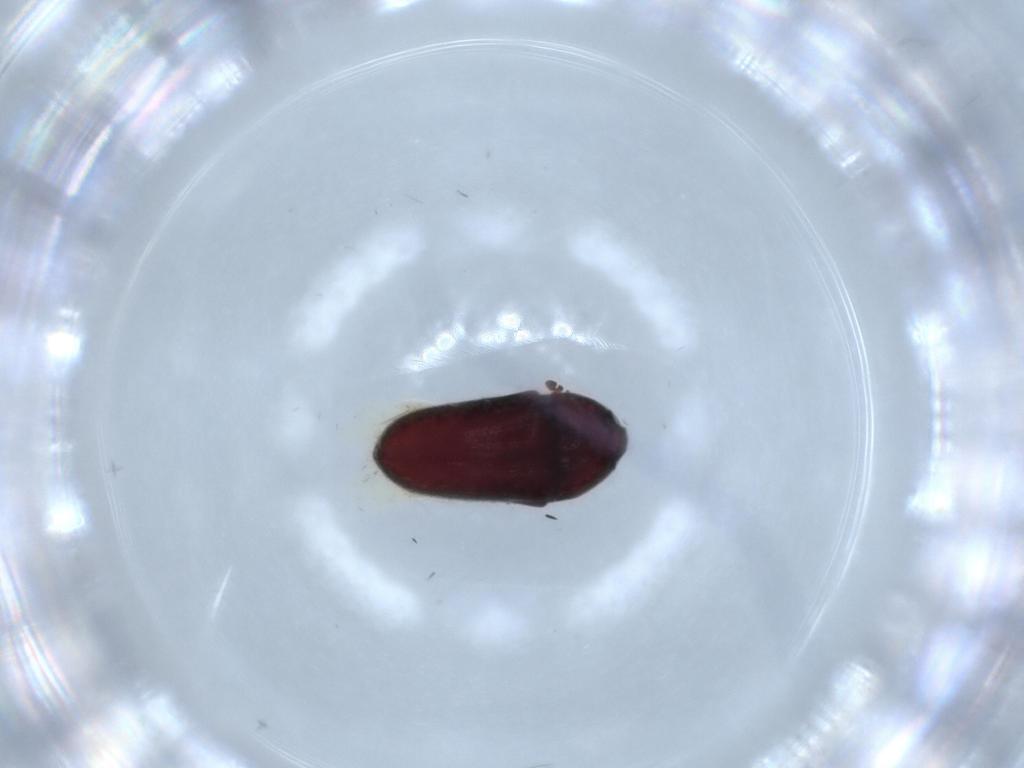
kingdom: Animalia
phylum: Arthropoda
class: Insecta
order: Coleoptera
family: Throscidae
